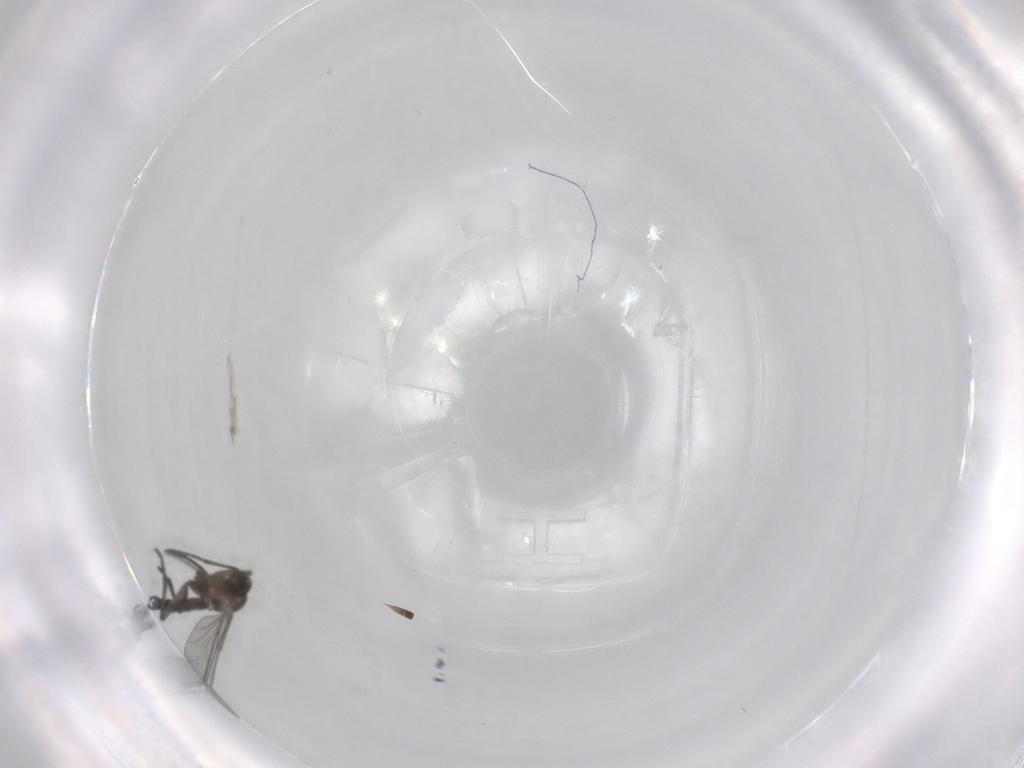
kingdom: Animalia
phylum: Arthropoda
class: Insecta
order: Diptera
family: Sciaridae
